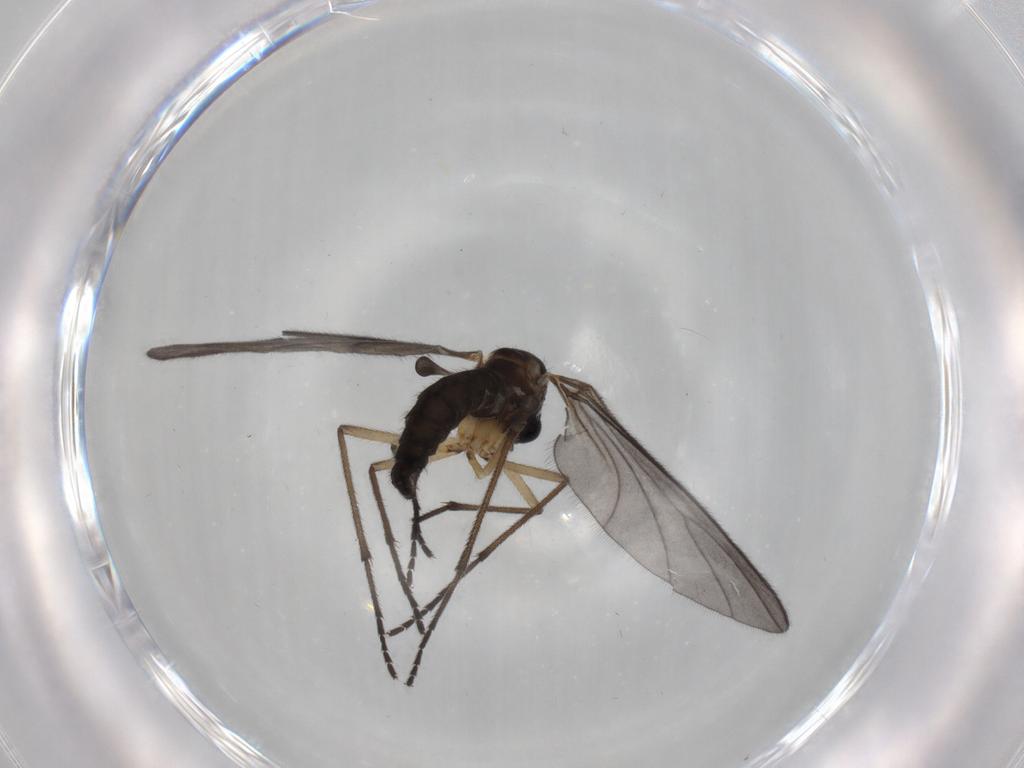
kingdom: Animalia
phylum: Arthropoda
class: Insecta
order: Diptera
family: Sciaridae
